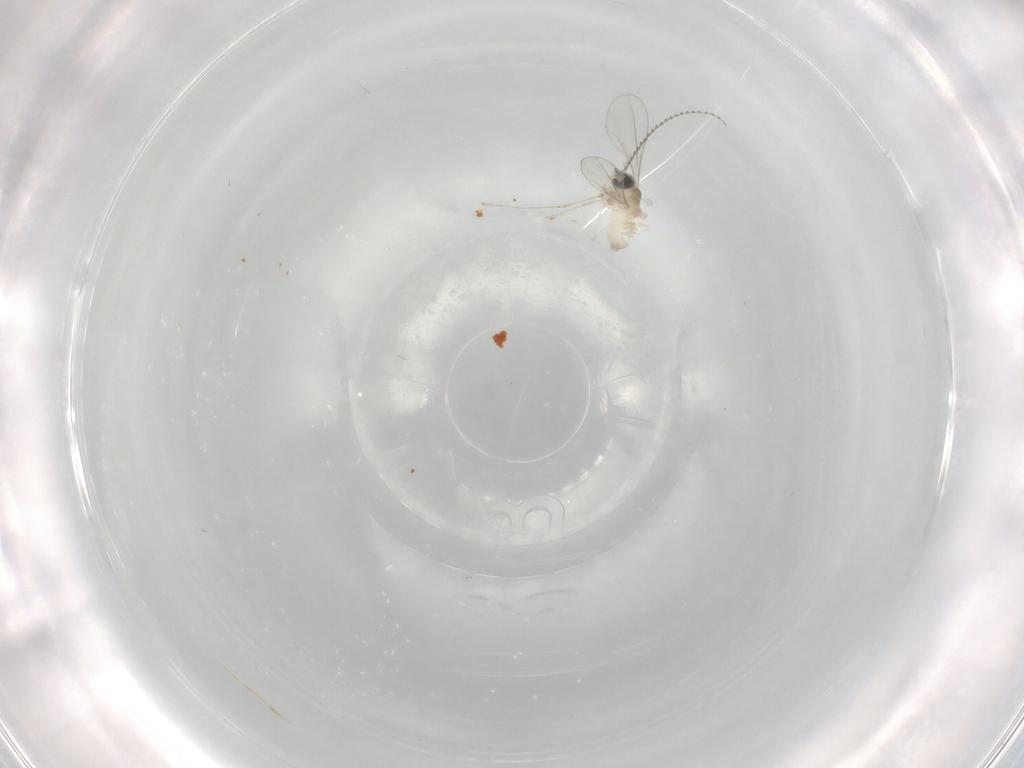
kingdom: Animalia
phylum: Arthropoda
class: Insecta
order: Diptera
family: Cecidomyiidae
